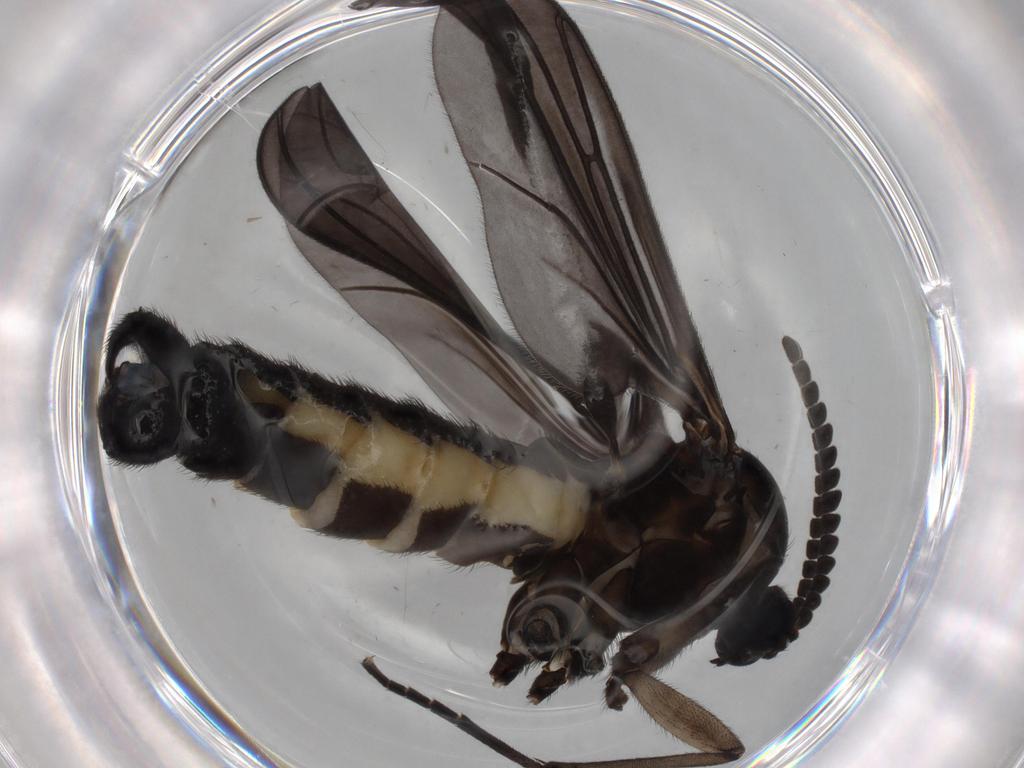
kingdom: Animalia
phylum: Arthropoda
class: Insecta
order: Diptera
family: Sciaridae
